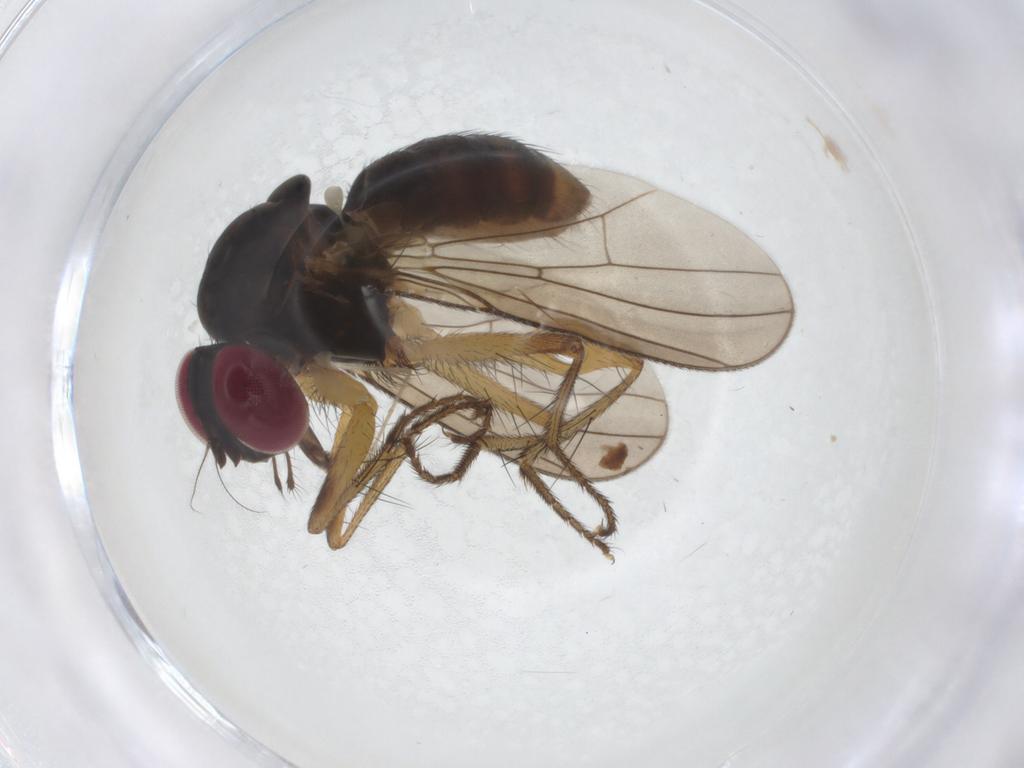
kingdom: Animalia
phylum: Arthropoda
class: Insecta
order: Diptera
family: Anthomyiidae
